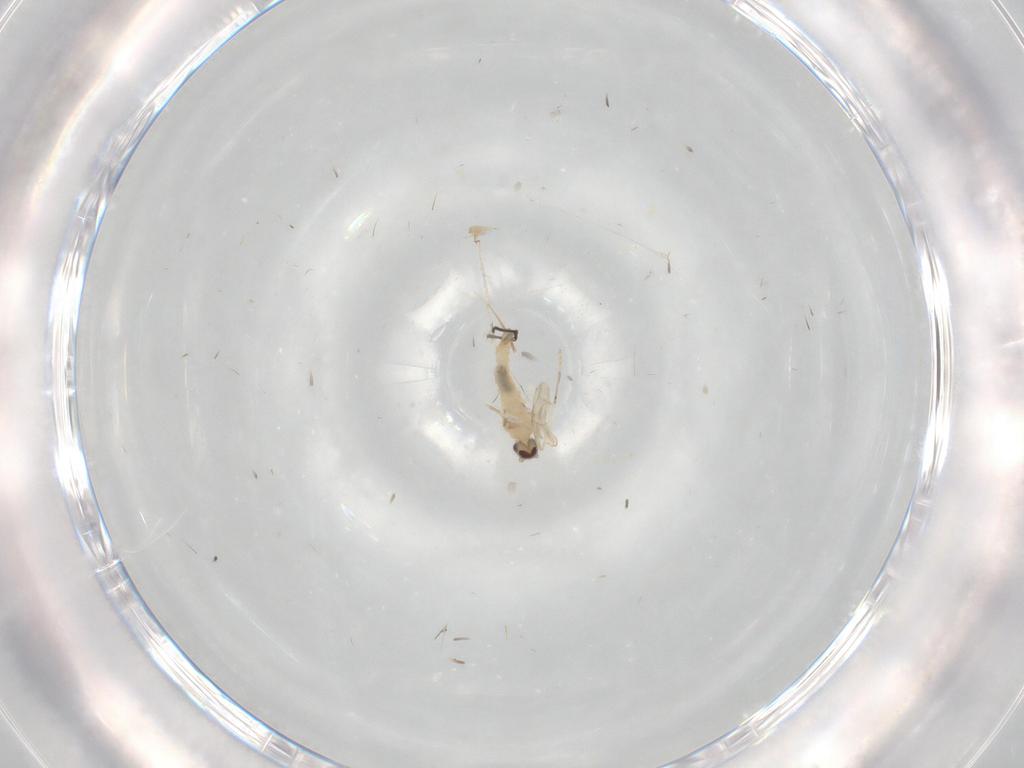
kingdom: Animalia
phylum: Arthropoda
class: Insecta
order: Diptera
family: Cecidomyiidae
